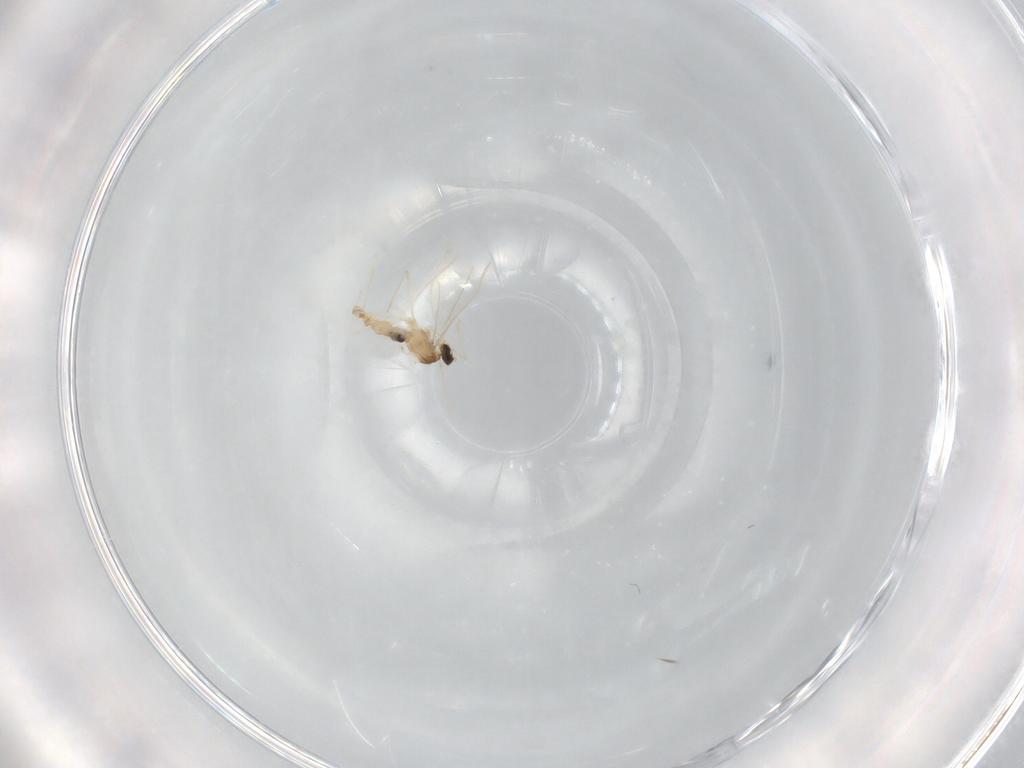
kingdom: Animalia
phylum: Arthropoda
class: Insecta
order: Diptera
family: Cecidomyiidae
